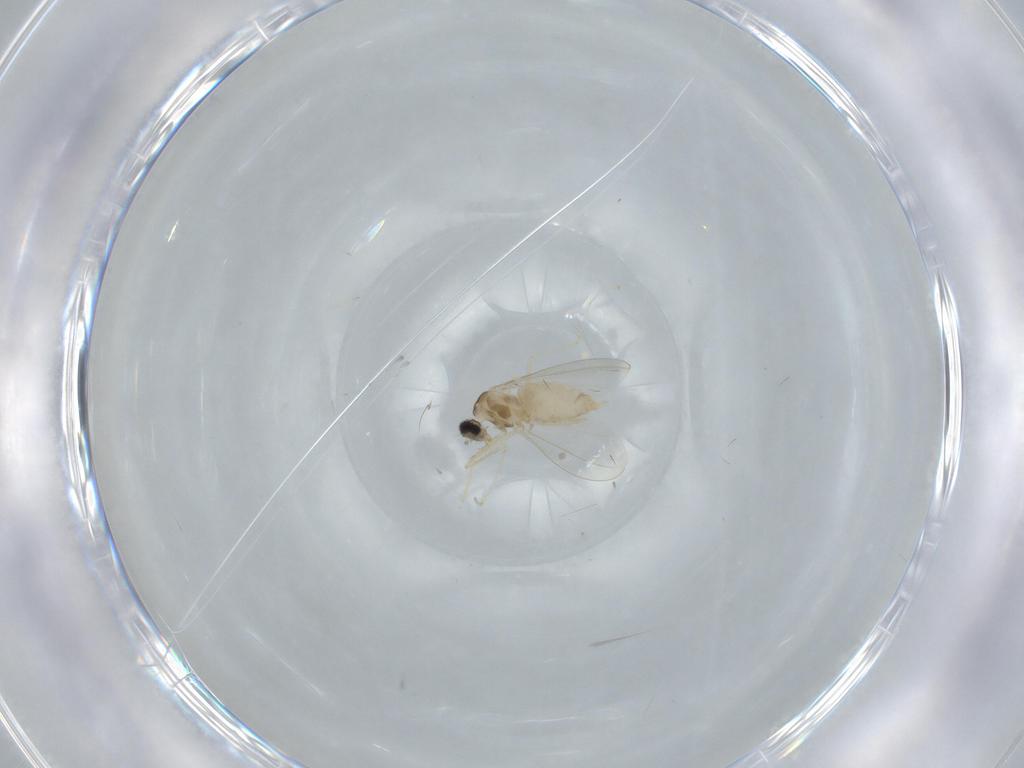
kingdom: Animalia
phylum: Arthropoda
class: Insecta
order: Diptera
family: Cecidomyiidae
